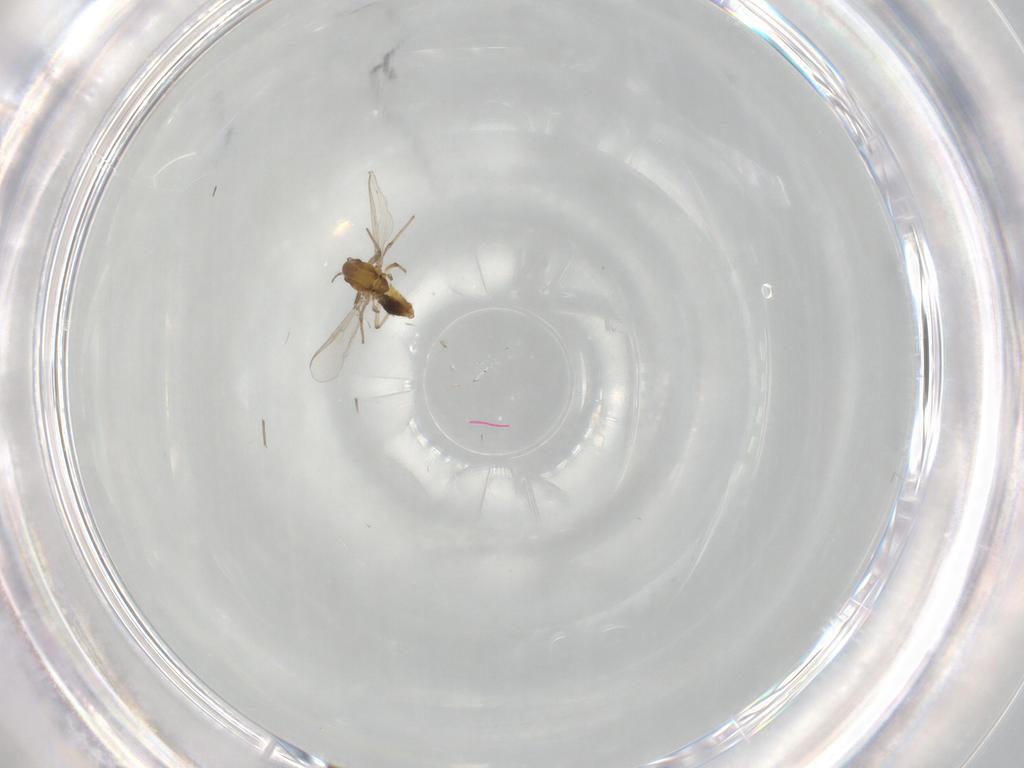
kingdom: Animalia
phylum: Arthropoda
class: Insecta
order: Diptera
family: Chironomidae
